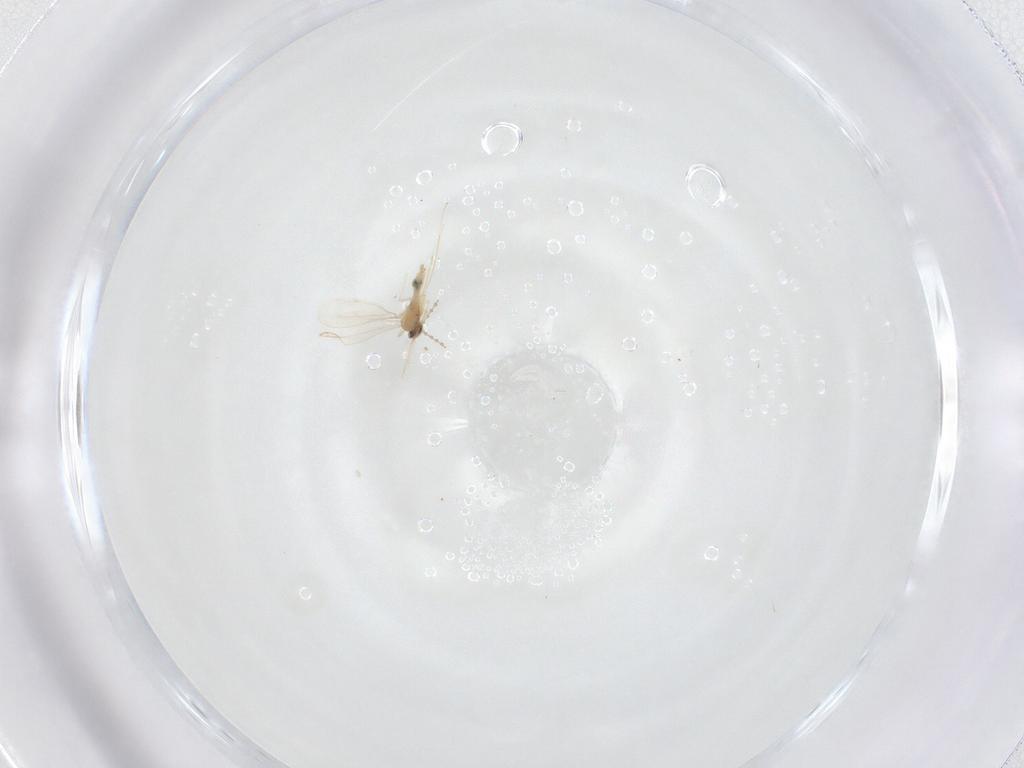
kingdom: Animalia
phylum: Arthropoda
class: Insecta
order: Diptera
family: Cecidomyiidae
